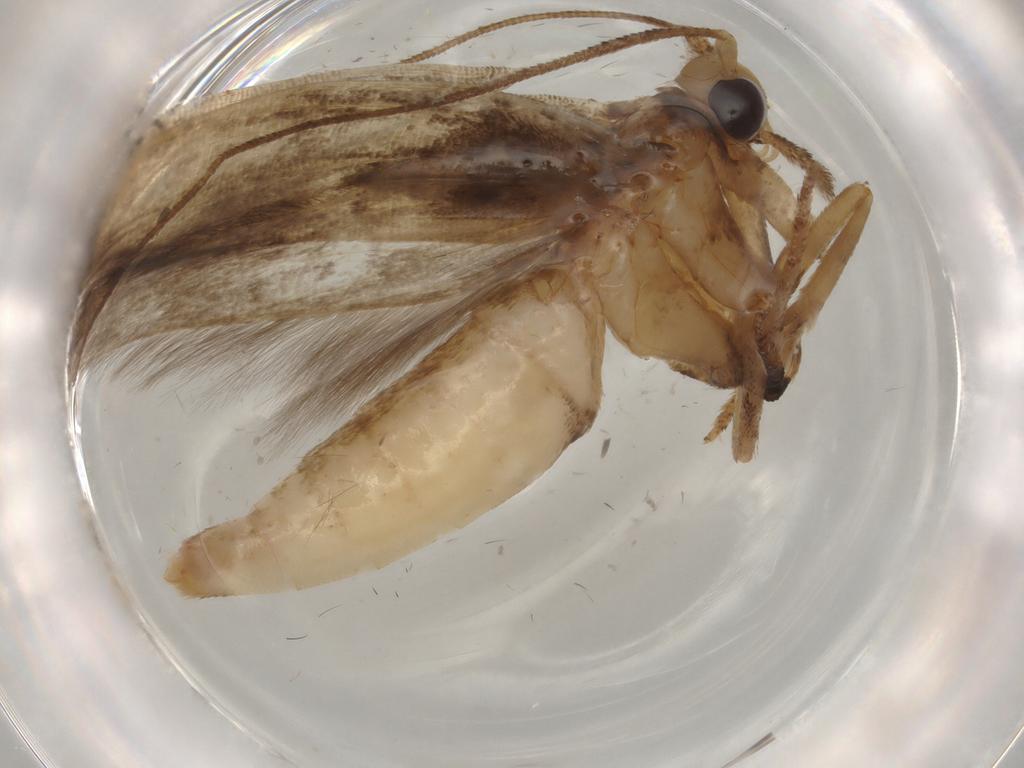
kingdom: Animalia
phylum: Arthropoda
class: Insecta
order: Lepidoptera
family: Yponomeutidae
